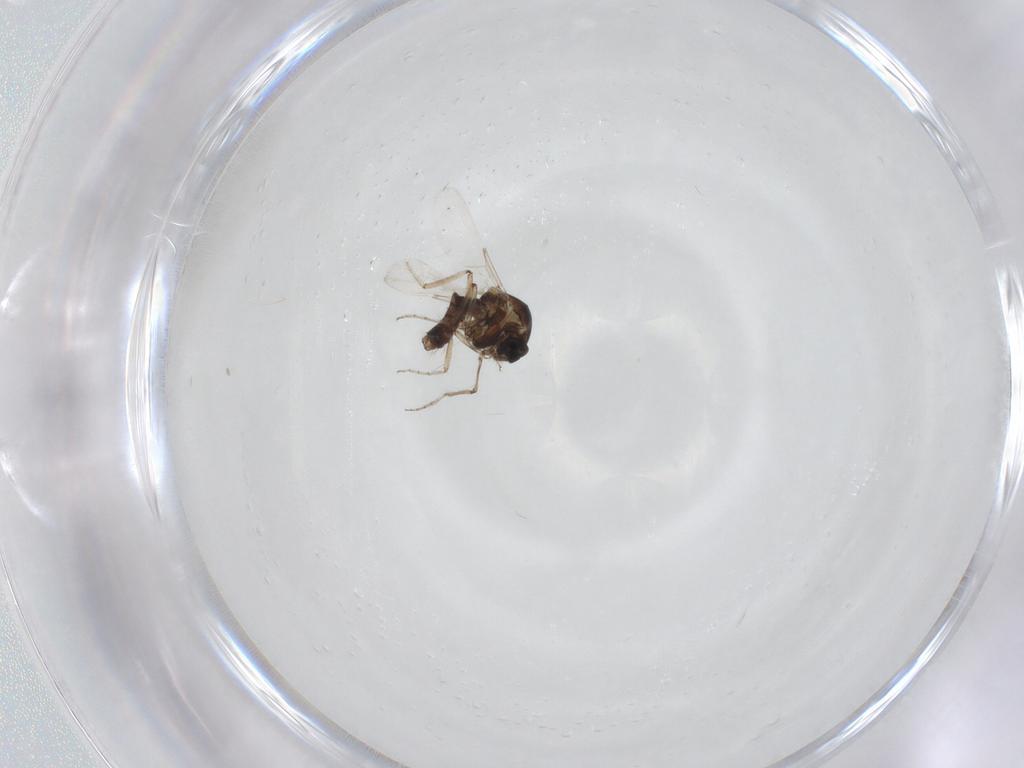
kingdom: Animalia
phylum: Arthropoda
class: Insecta
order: Diptera
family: Ceratopogonidae
